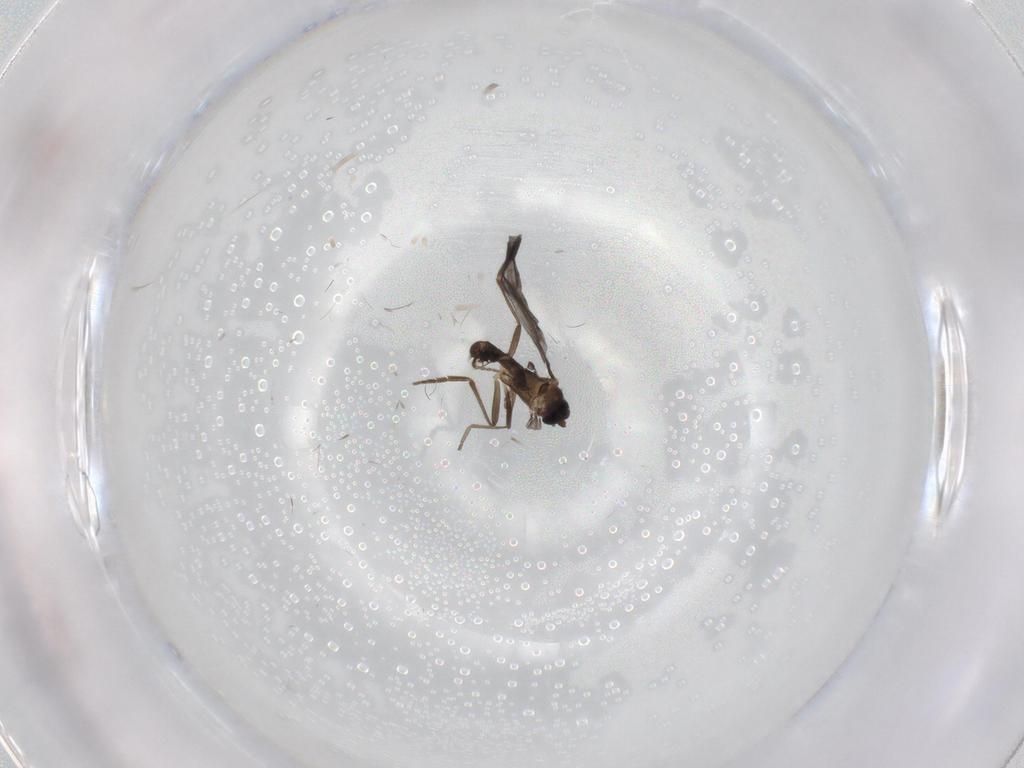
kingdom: Animalia
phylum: Arthropoda
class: Insecta
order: Diptera
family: Phoridae
